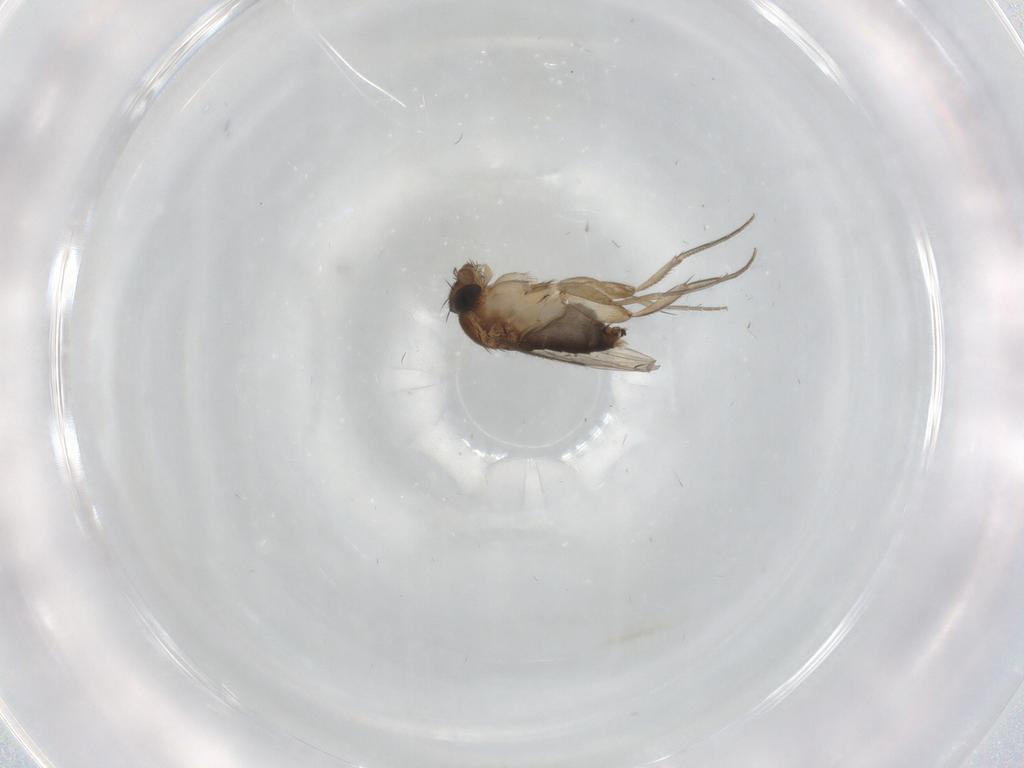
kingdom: Animalia
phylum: Arthropoda
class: Insecta
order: Diptera
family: Phoridae
